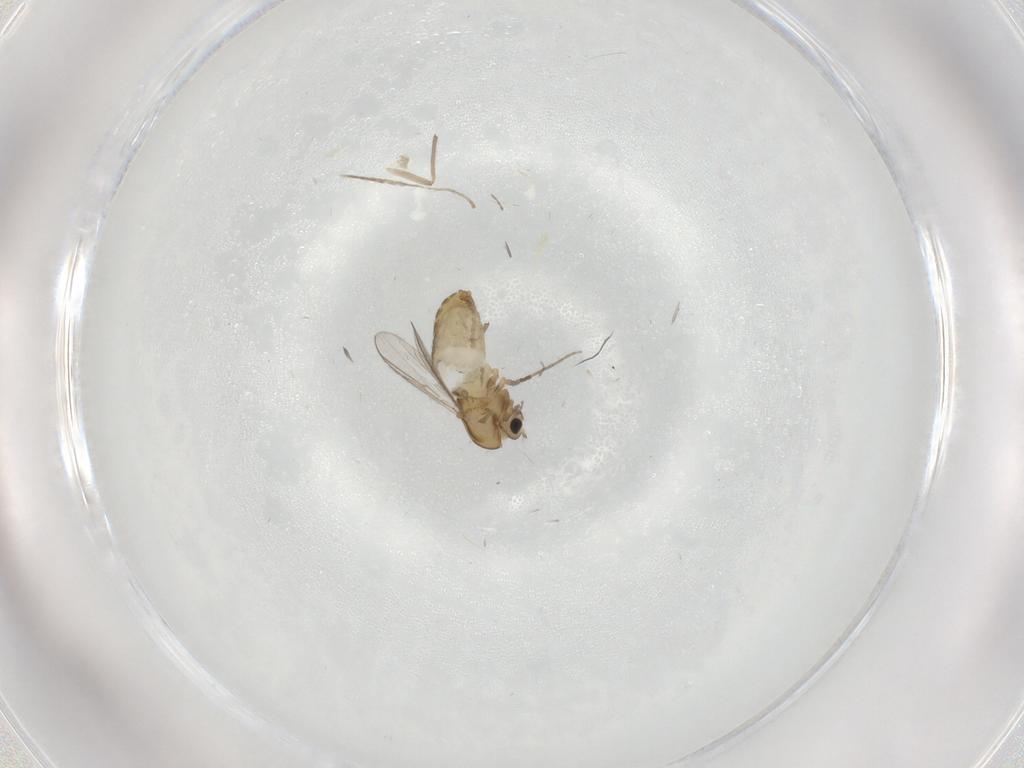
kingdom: Animalia
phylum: Arthropoda
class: Insecta
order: Diptera
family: Chironomidae
